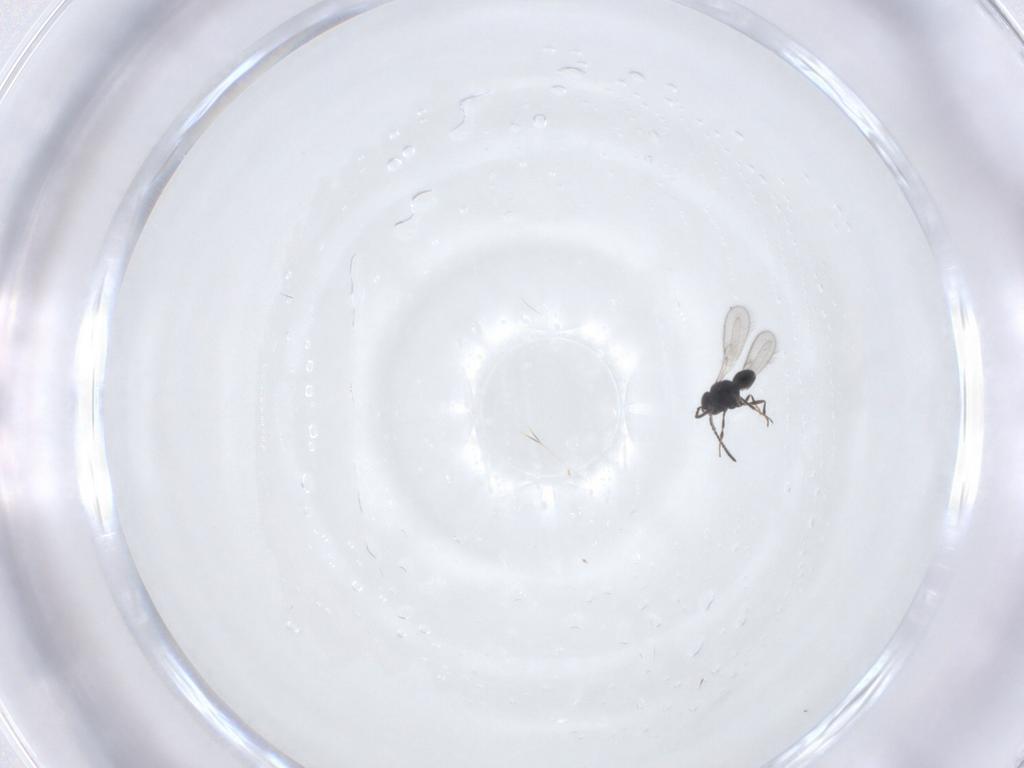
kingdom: Animalia
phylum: Arthropoda
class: Insecta
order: Hymenoptera
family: Scelionidae
